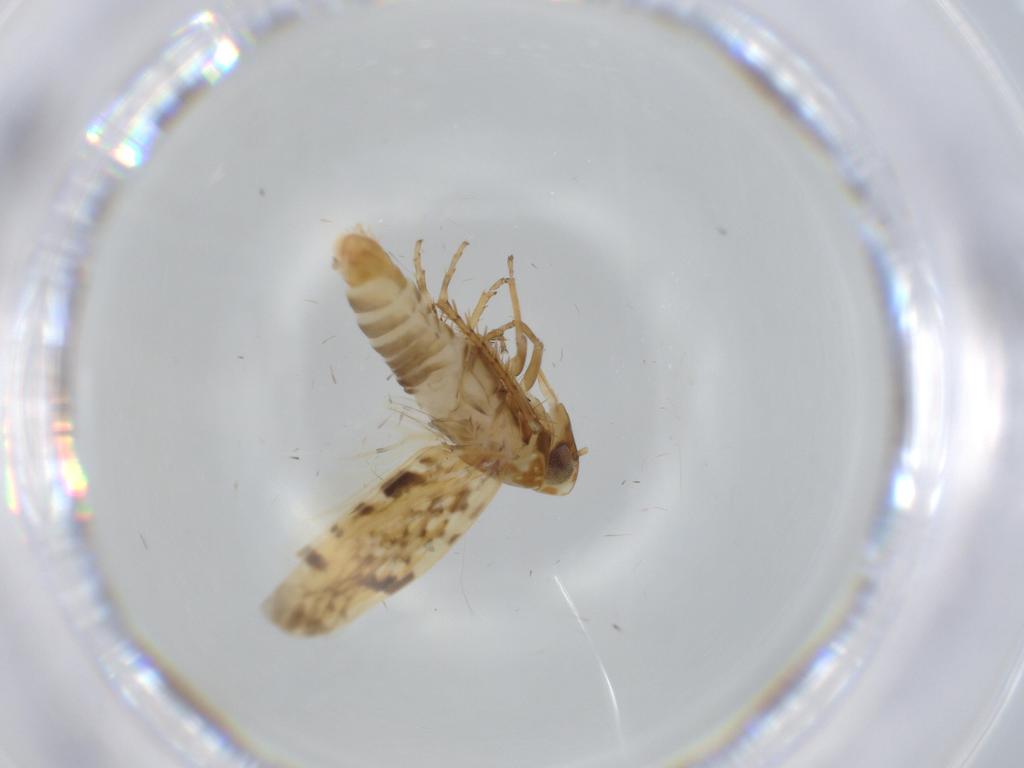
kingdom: Animalia
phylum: Arthropoda
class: Insecta
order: Hemiptera
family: Cicadellidae
